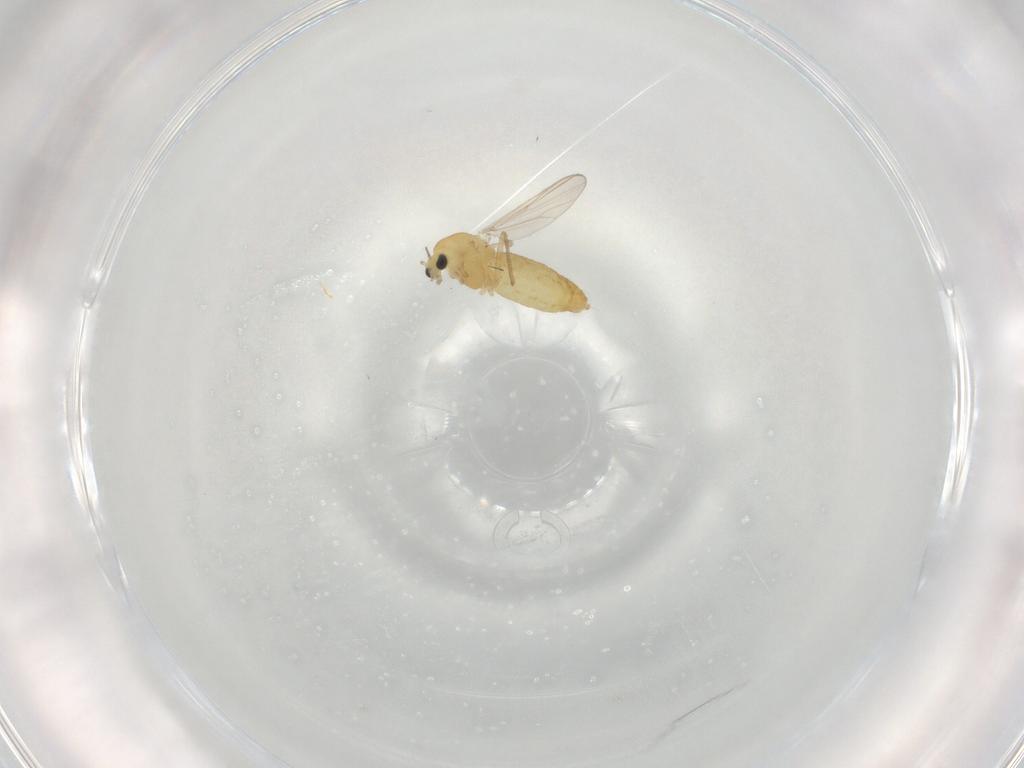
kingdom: Animalia
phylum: Arthropoda
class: Insecta
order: Diptera
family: Chironomidae
